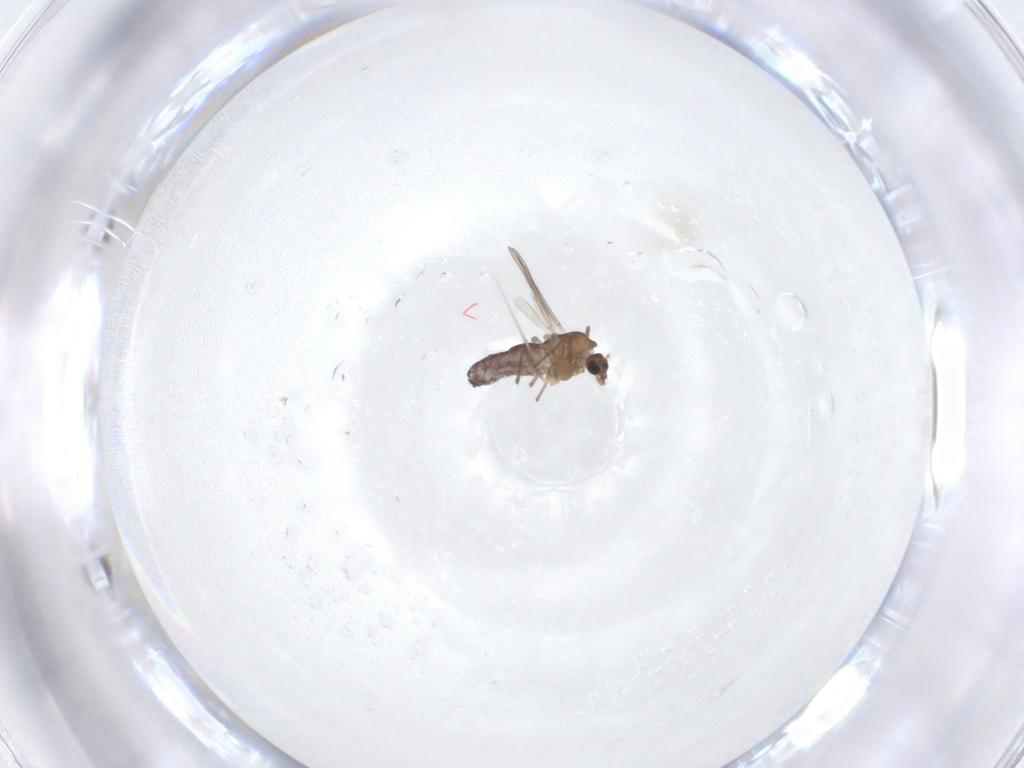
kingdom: Animalia
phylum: Arthropoda
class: Insecta
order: Diptera
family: Chironomidae
